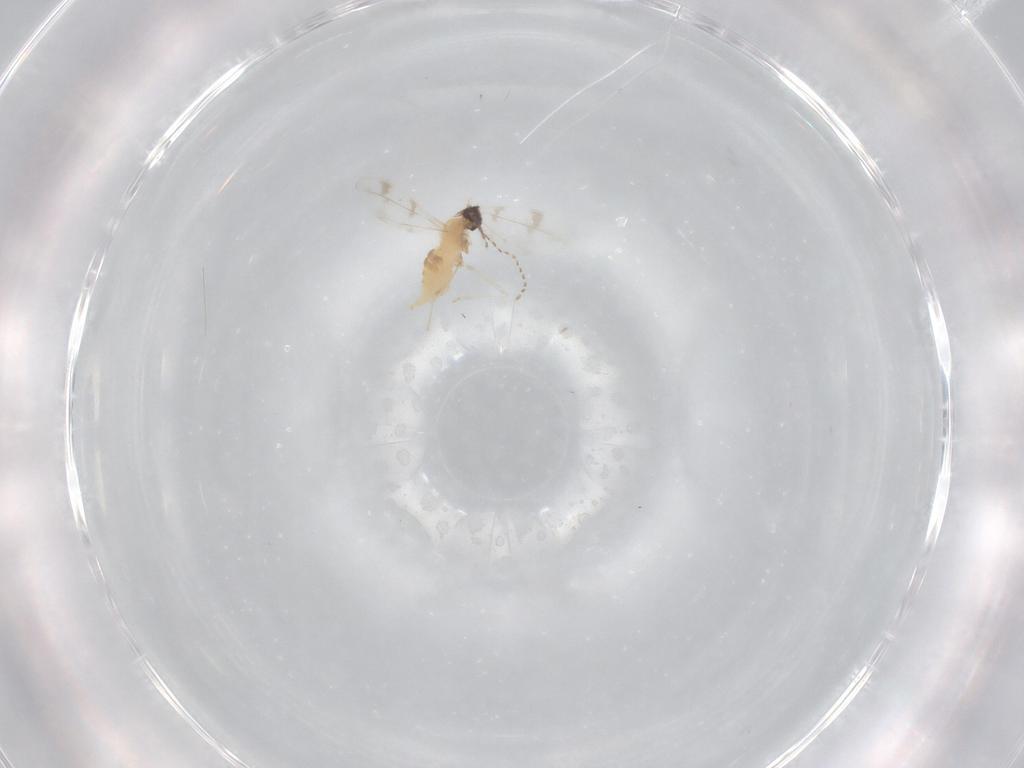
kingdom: Animalia
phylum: Arthropoda
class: Insecta
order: Diptera
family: Cecidomyiidae
